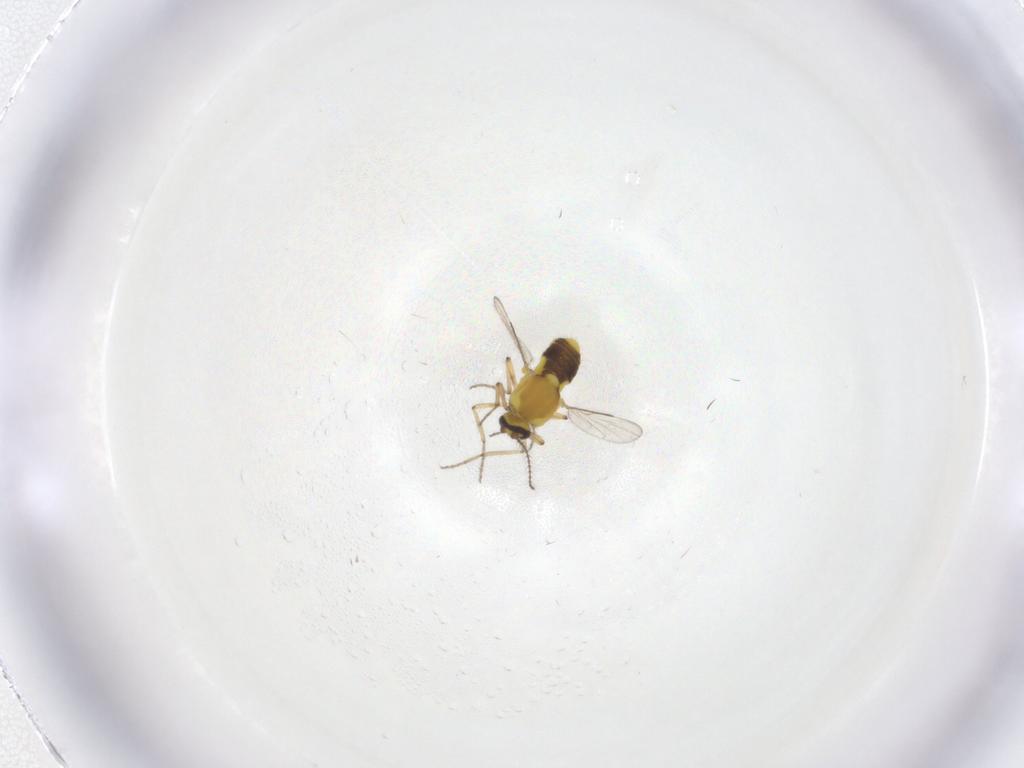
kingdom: Animalia
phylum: Arthropoda
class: Insecta
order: Diptera
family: Ceratopogonidae
